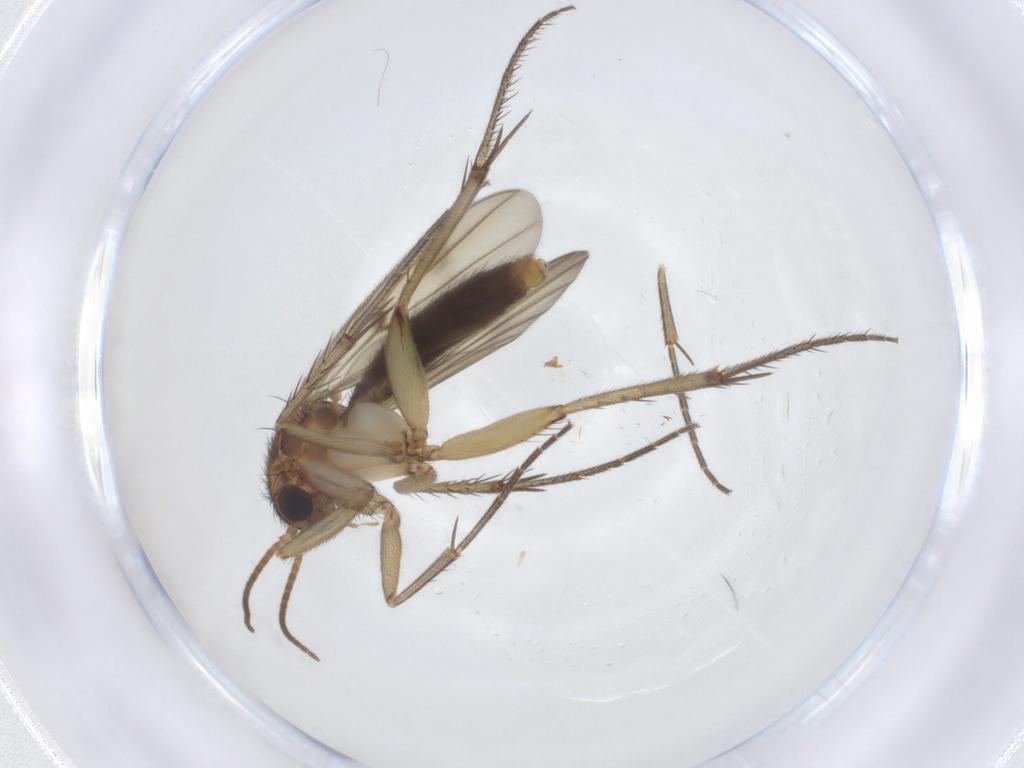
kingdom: Animalia
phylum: Arthropoda
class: Insecta
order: Diptera
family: Phoridae
